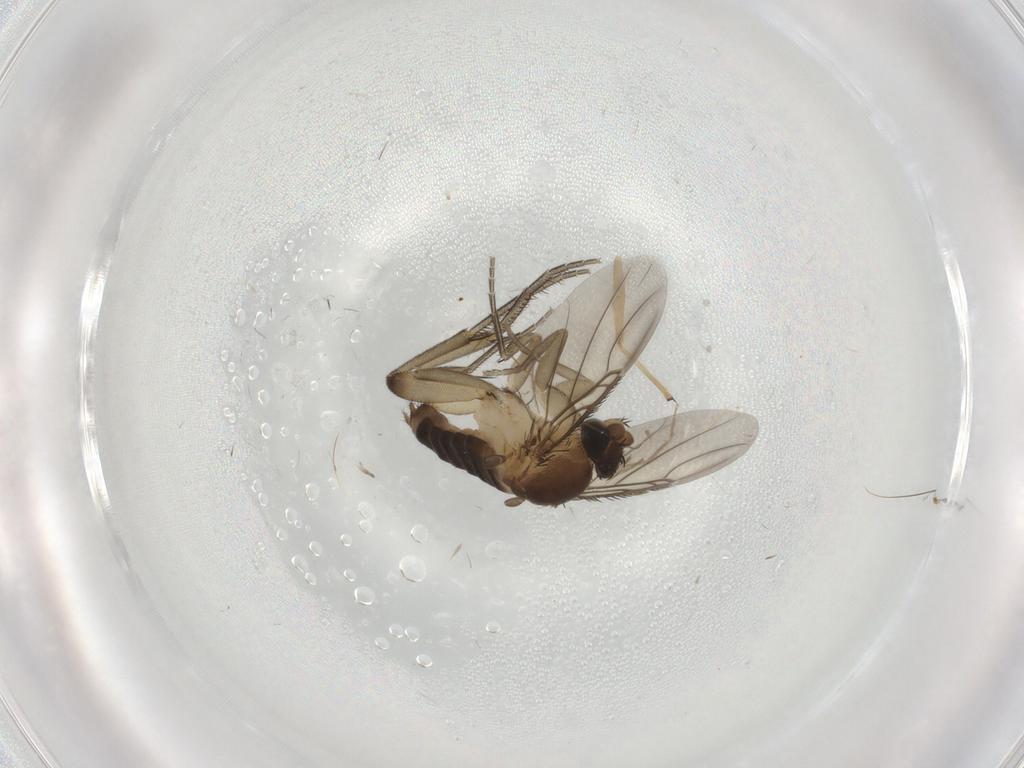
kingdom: Animalia
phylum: Arthropoda
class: Insecta
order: Diptera
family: Phoridae
